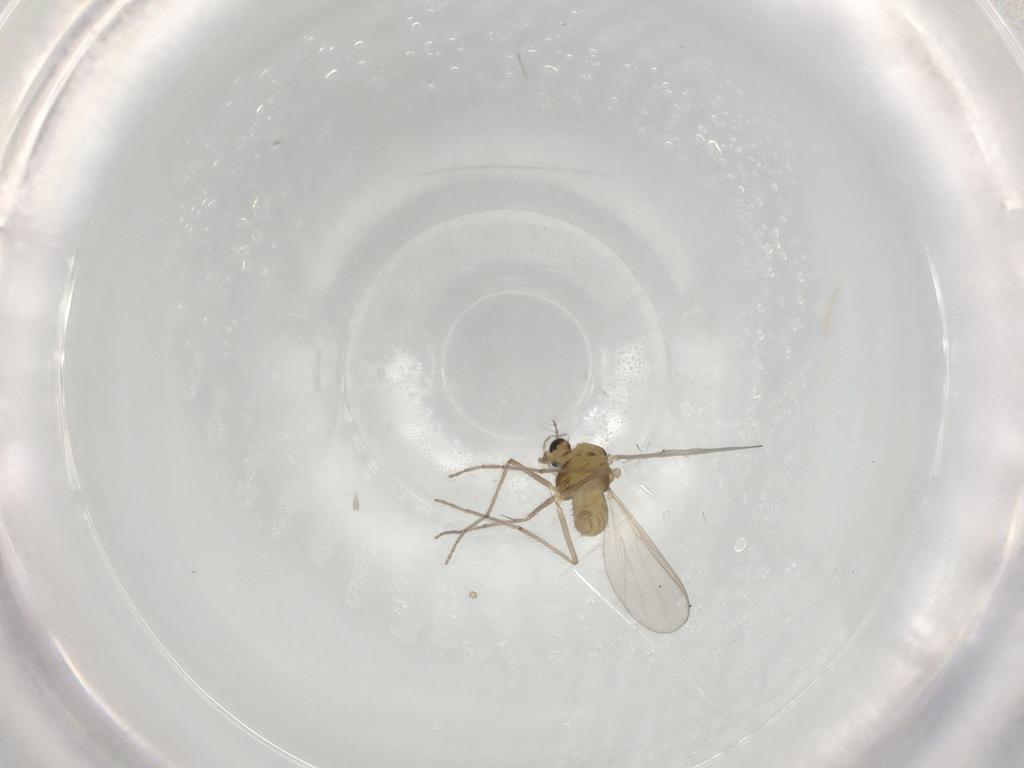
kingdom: Animalia
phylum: Arthropoda
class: Insecta
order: Diptera
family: Chironomidae
